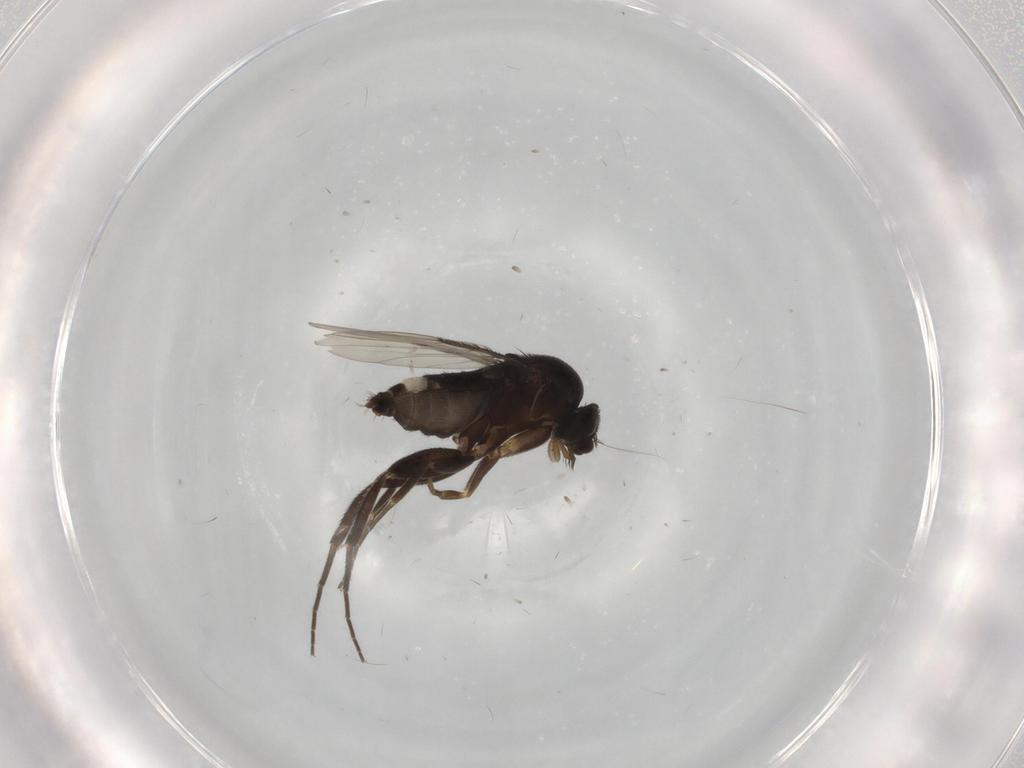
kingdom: Animalia
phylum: Arthropoda
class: Insecta
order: Diptera
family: Phoridae
